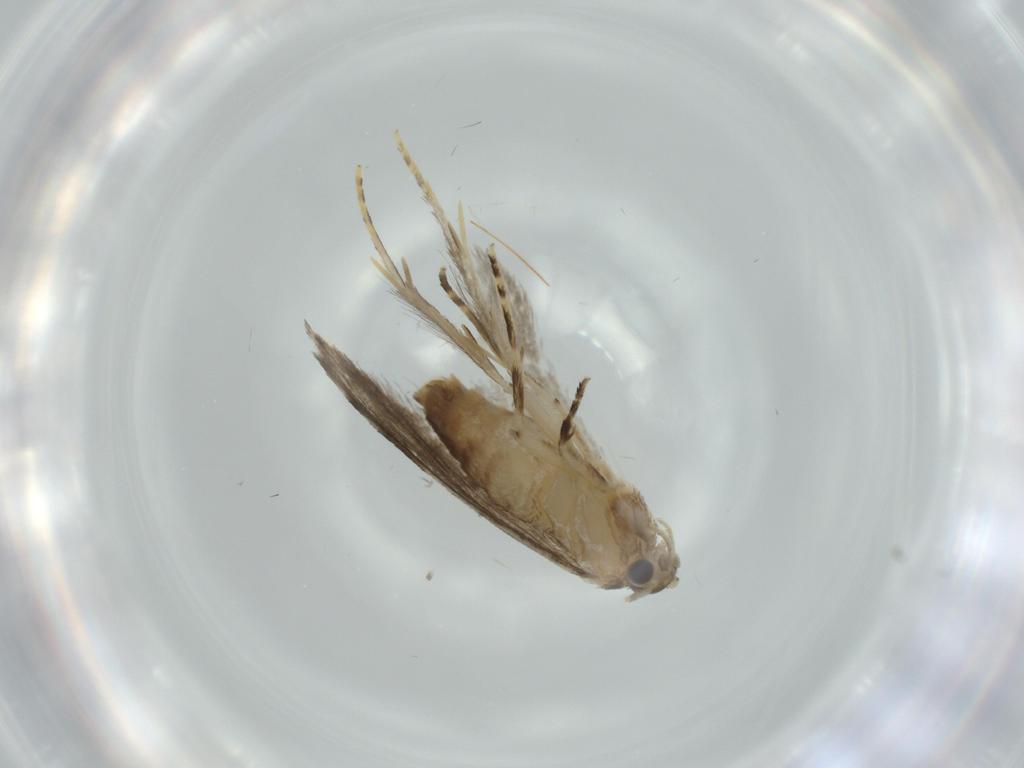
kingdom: Animalia
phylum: Arthropoda
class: Insecta
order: Lepidoptera
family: Tineidae
